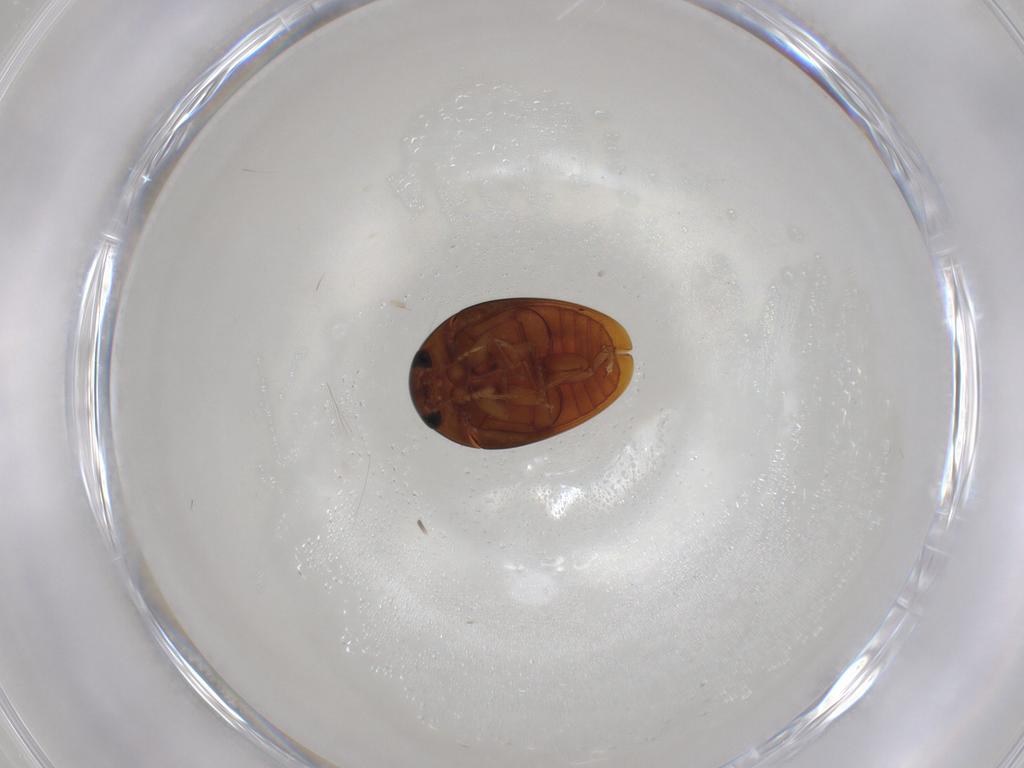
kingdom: Animalia
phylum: Arthropoda
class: Insecta
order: Coleoptera
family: Phalacridae
